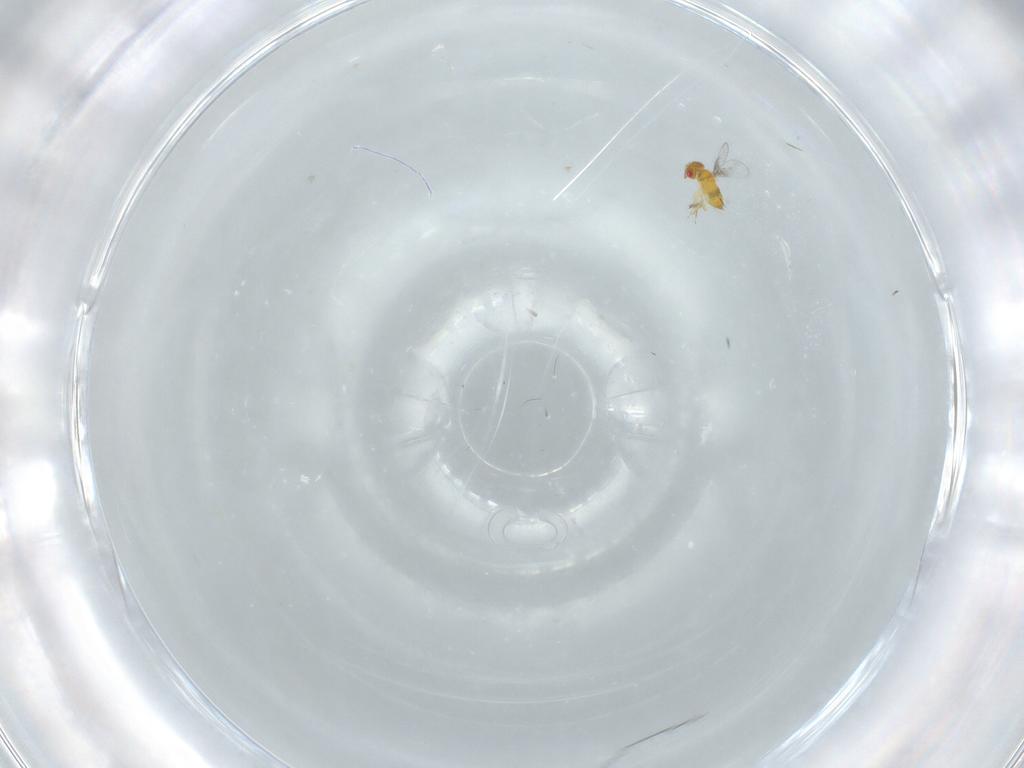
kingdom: Animalia
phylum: Arthropoda
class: Insecta
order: Hymenoptera
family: Trichogrammatidae
